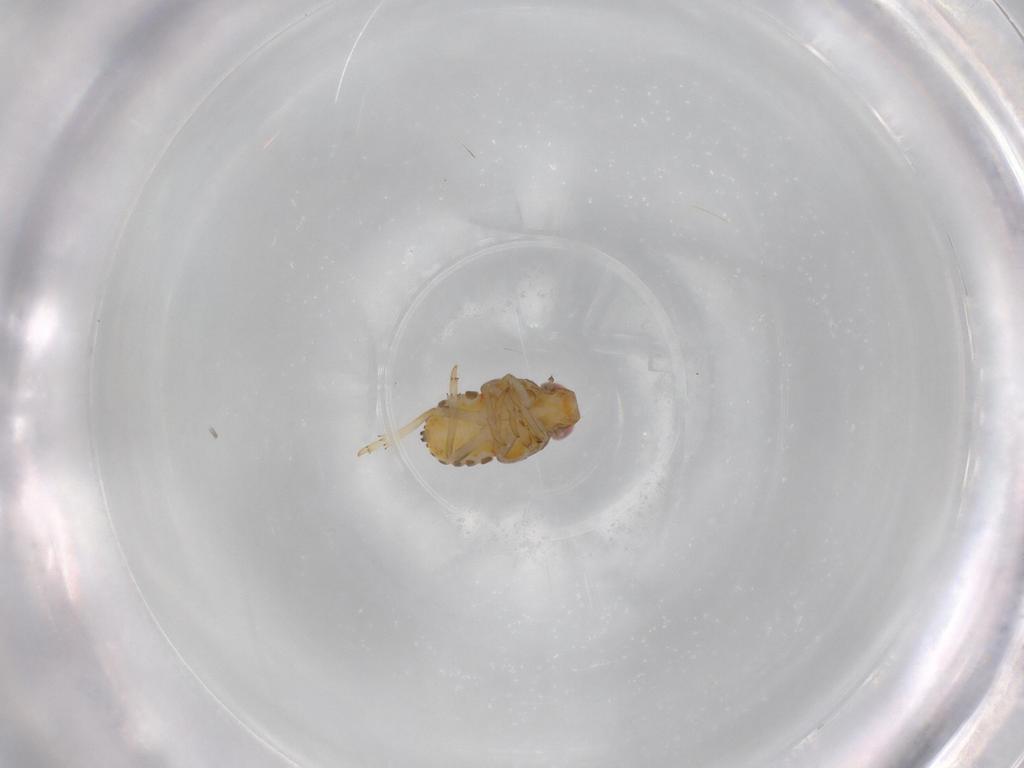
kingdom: Animalia
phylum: Arthropoda
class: Insecta
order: Hemiptera
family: Issidae
